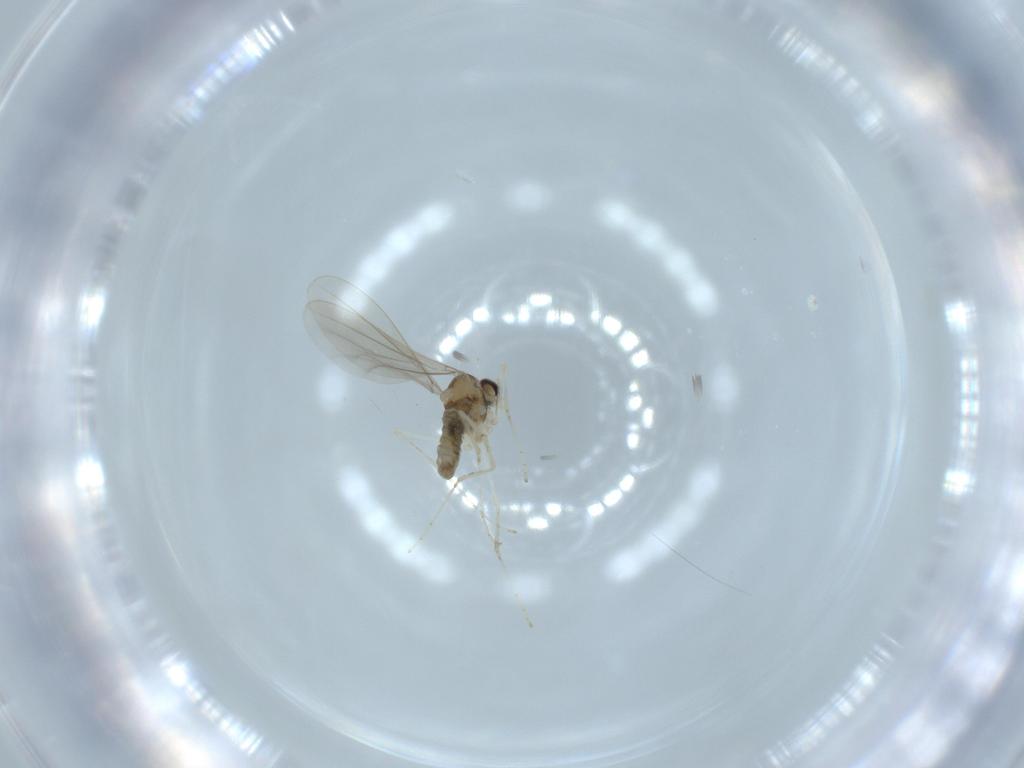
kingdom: Animalia
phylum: Arthropoda
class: Insecta
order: Diptera
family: Cecidomyiidae
